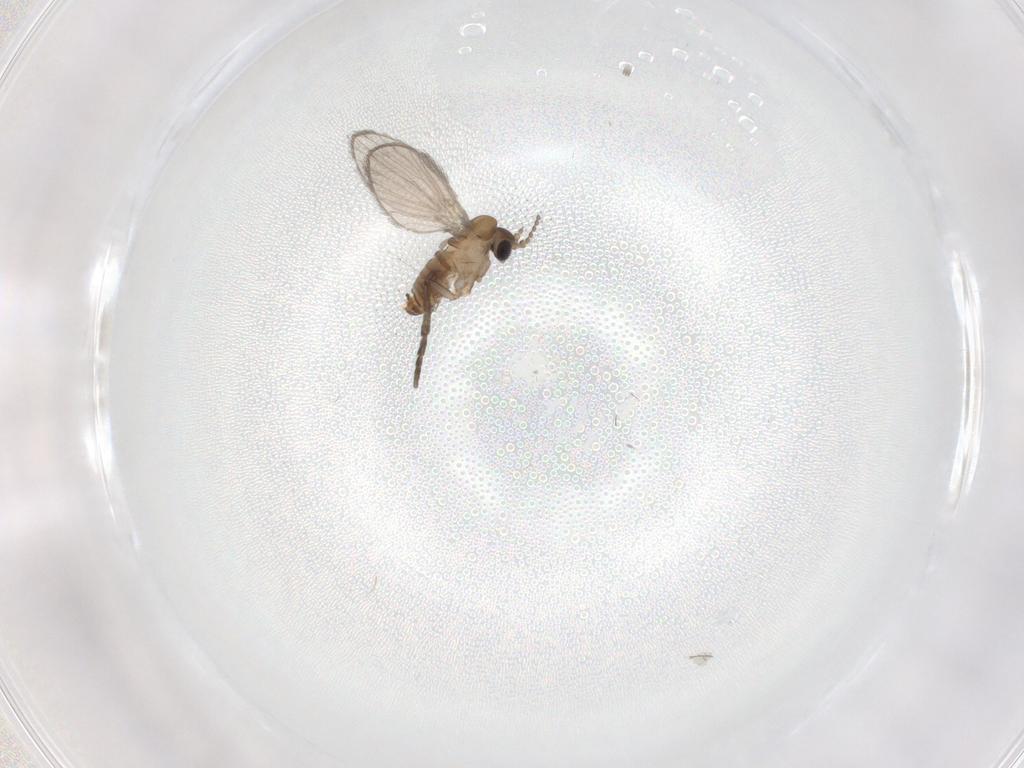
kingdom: Animalia
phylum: Arthropoda
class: Insecta
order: Diptera
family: Psychodidae
